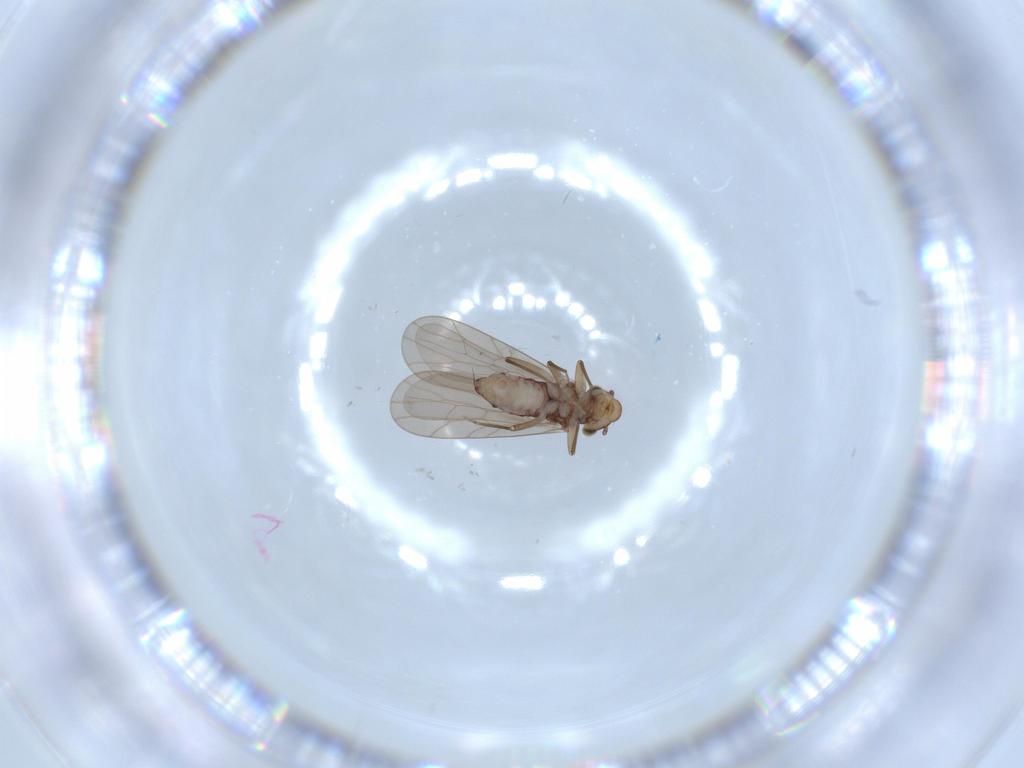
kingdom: Animalia
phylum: Arthropoda
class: Insecta
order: Psocodea
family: Lepidopsocidae
